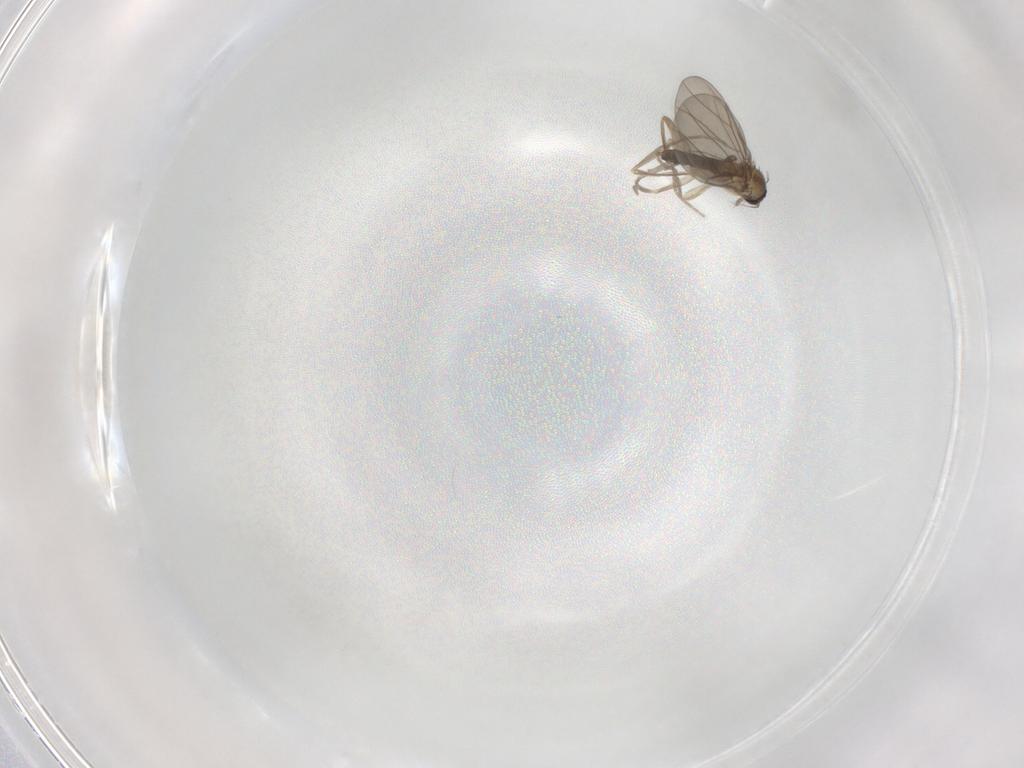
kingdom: Animalia
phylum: Arthropoda
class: Insecta
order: Diptera
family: Phoridae
